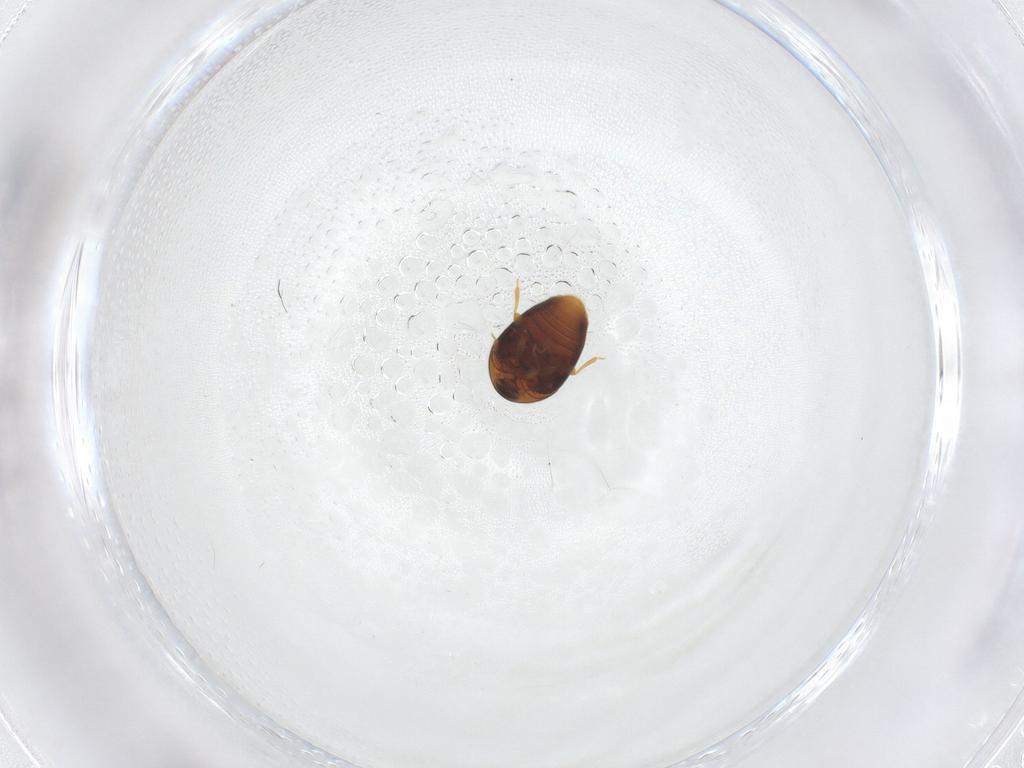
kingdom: Animalia
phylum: Arthropoda
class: Insecta
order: Coleoptera
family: Corylophidae
